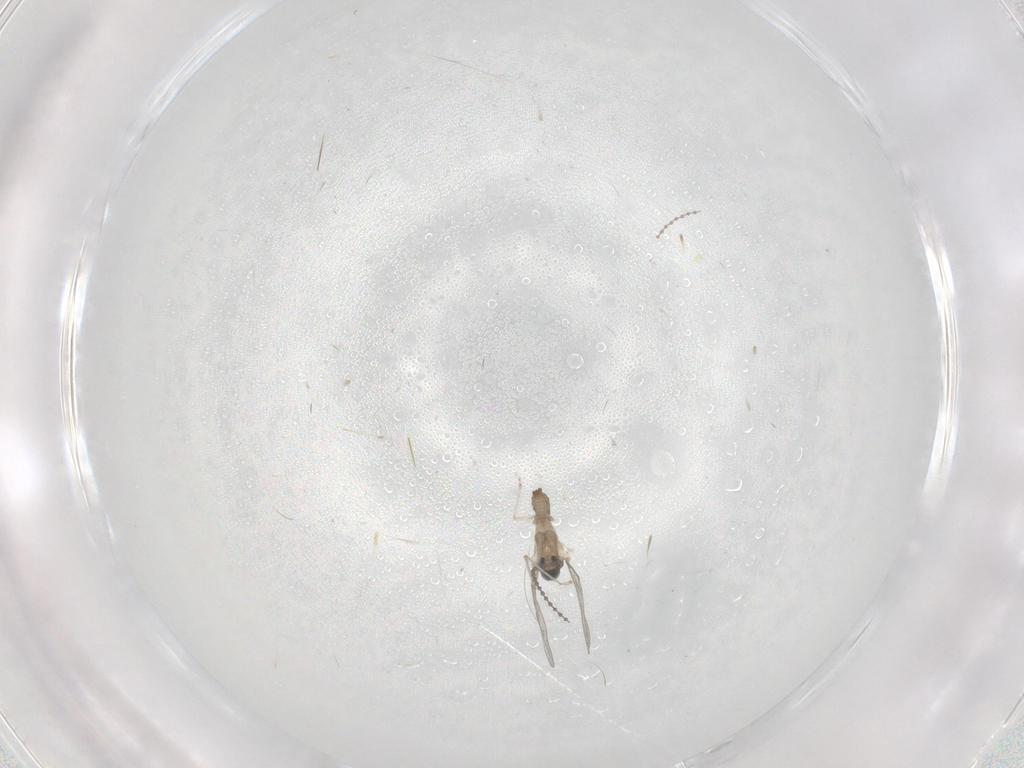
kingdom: Animalia
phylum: Arthropoda
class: Insecta
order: Diptera
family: Cecidomyiidae
